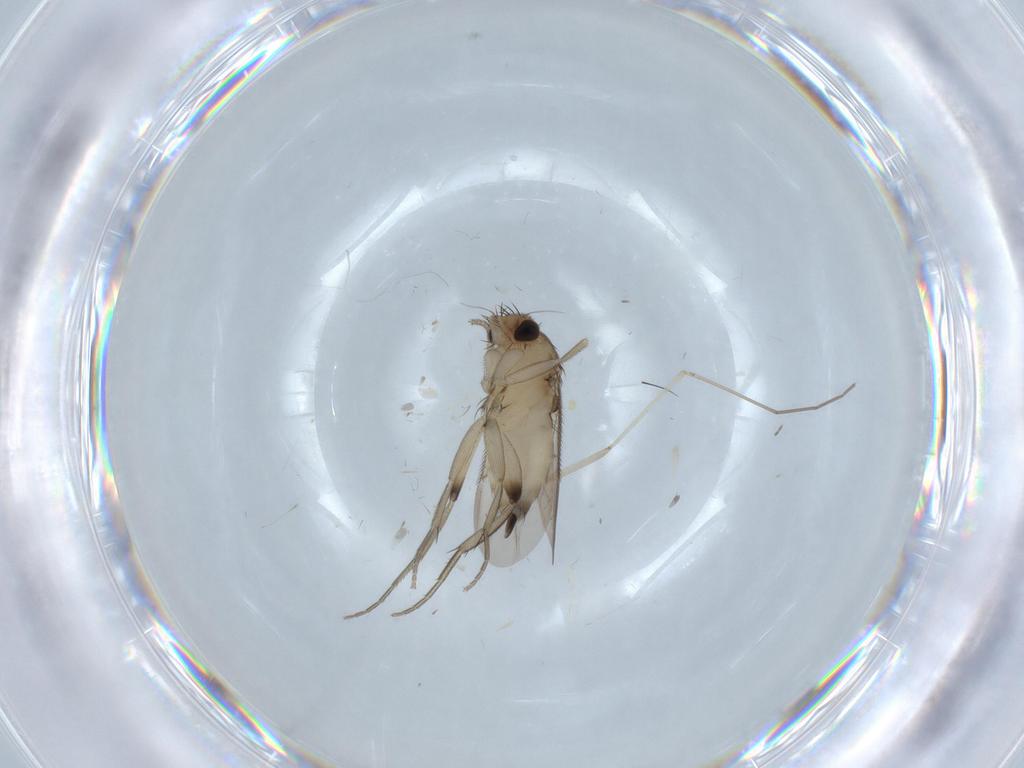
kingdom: Animalia
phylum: Arthropoda
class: Insecta
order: Diptera
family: Phoridae
